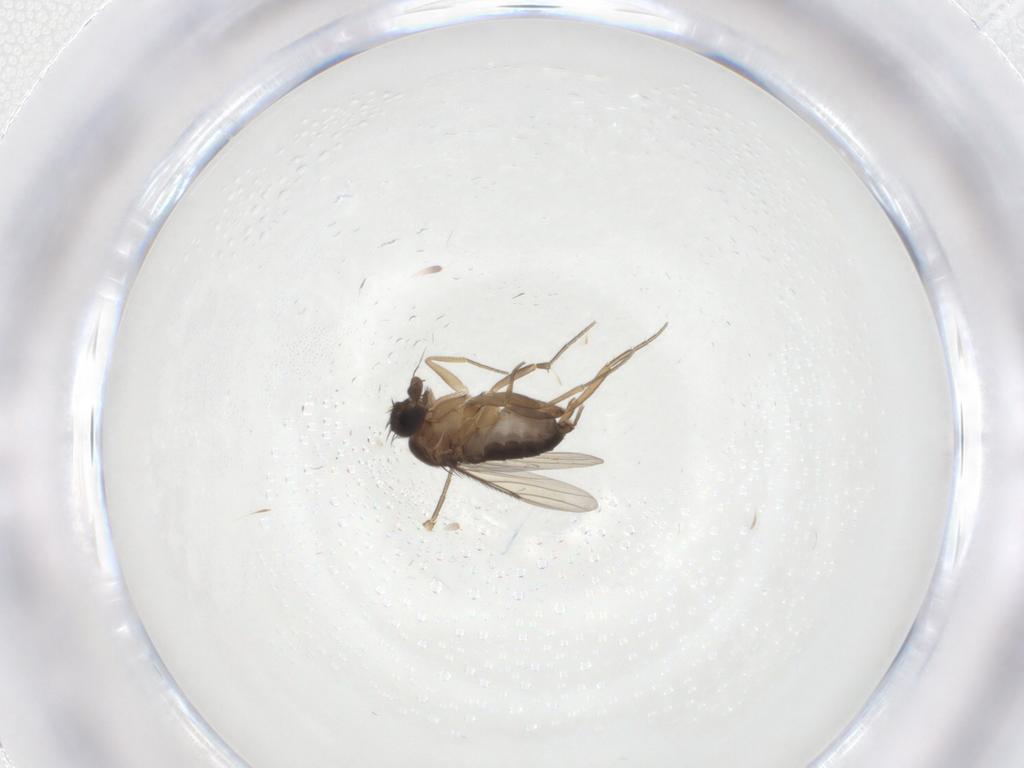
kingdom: Animalia
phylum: Arthropoda
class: Insecta
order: Diptera
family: Phoridae
